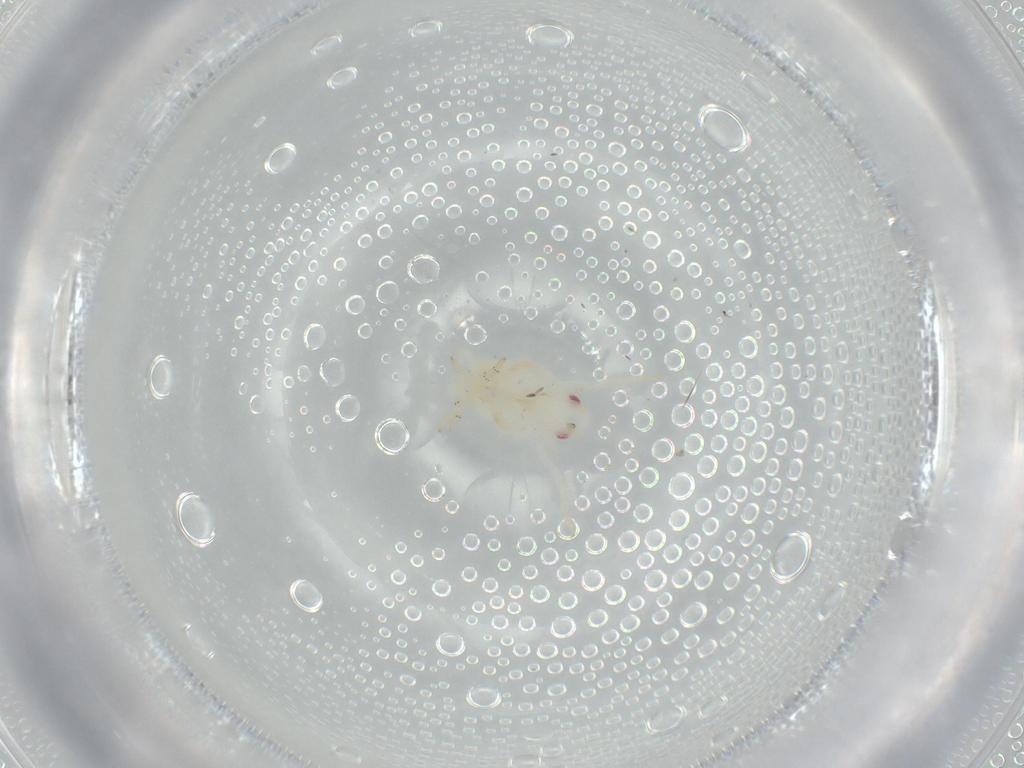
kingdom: Animalia
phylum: Arthropoda
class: Insecta
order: Hemiptera
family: Flatidae
